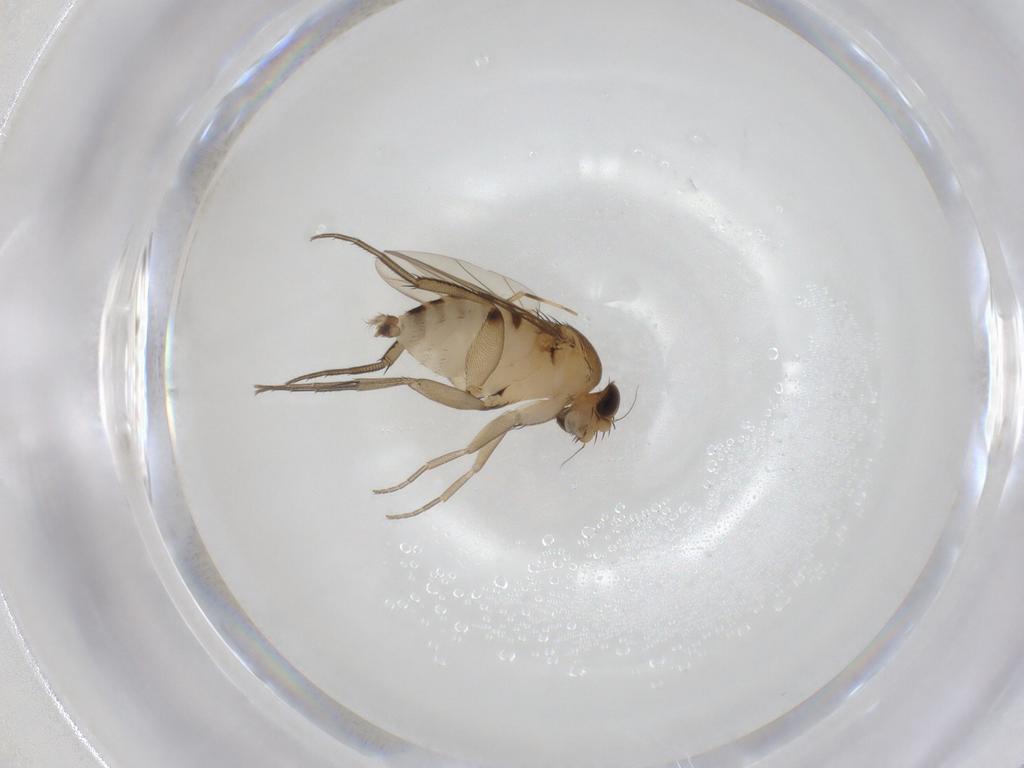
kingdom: Animalia
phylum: Arthropoda
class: Insecta
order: Diptera
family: Phoridae
